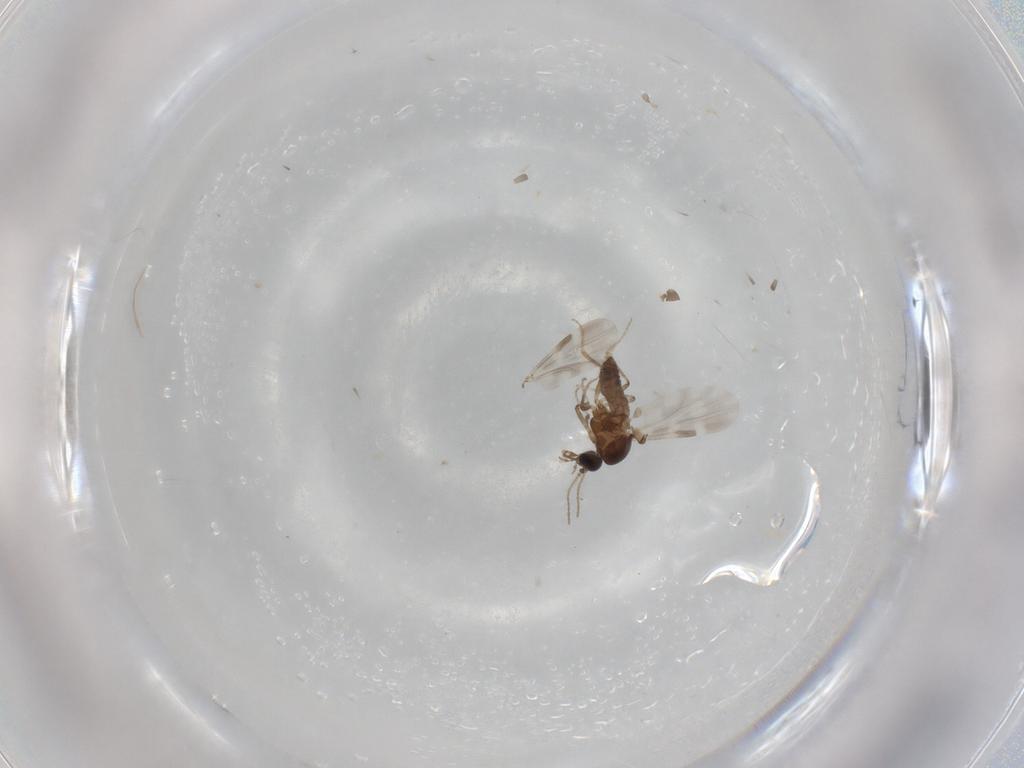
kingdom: Animalia
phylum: Arthropoda
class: Insecta
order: Diptera
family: Ceratopogonidae
